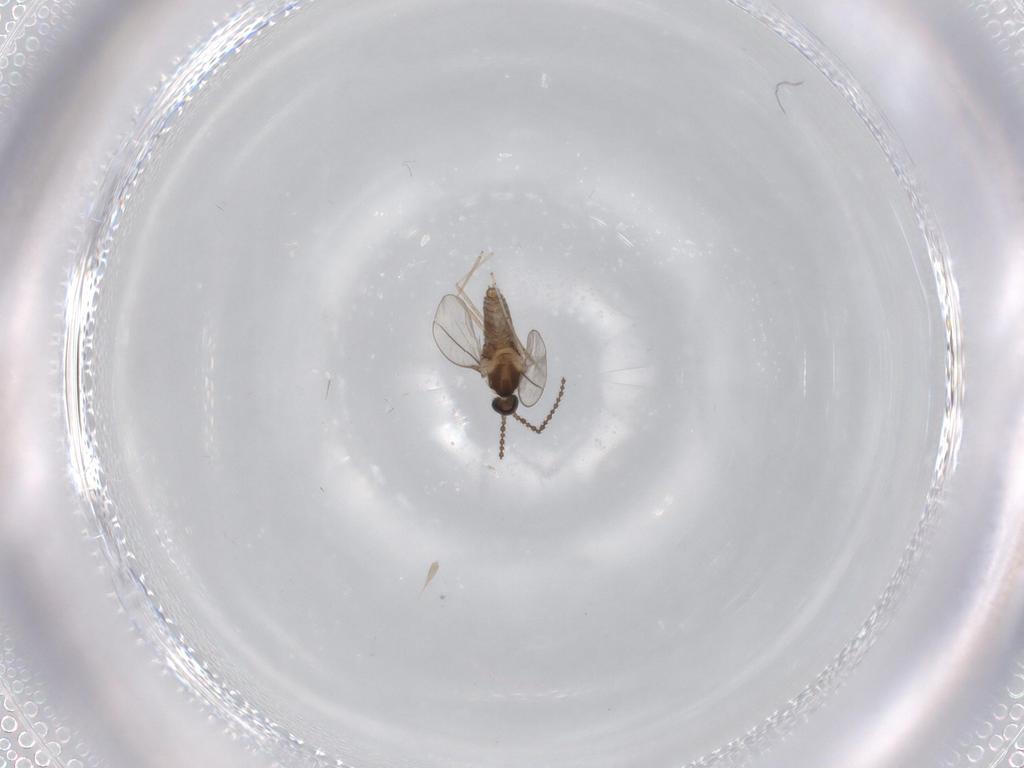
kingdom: Animalia
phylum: Arthropoda
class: Insecta
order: Diptera
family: Cecidomyiidae
